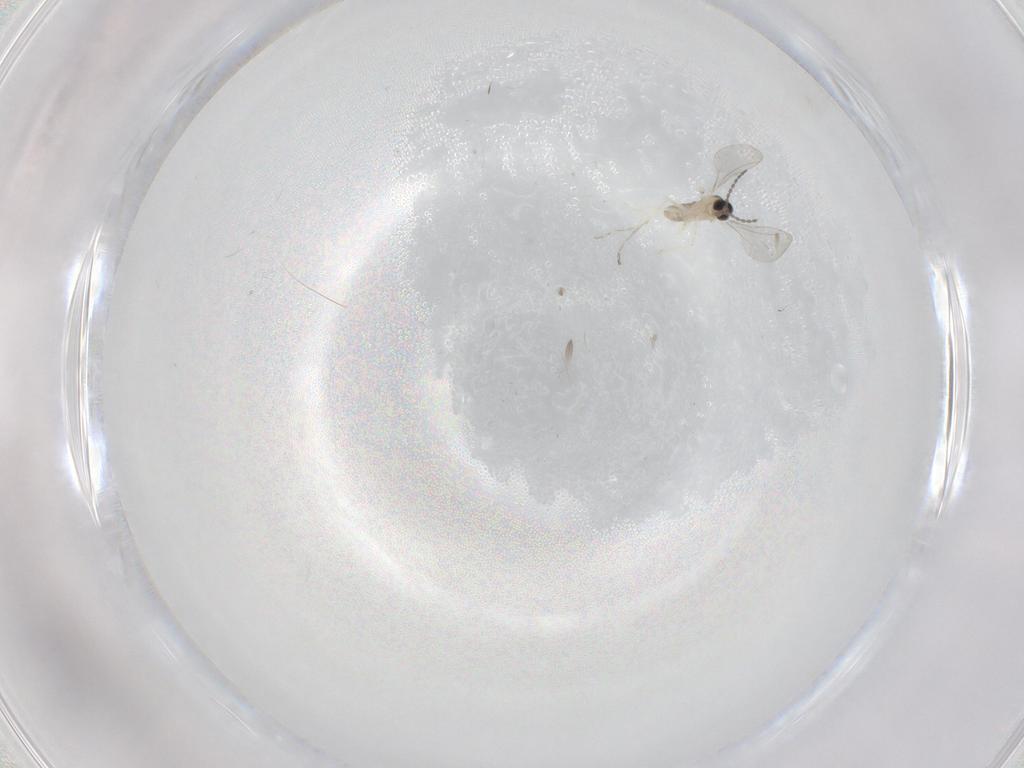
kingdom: Animalia
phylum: Arthropoda
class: Insecta
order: Diptera
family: Cecidomyiidae
